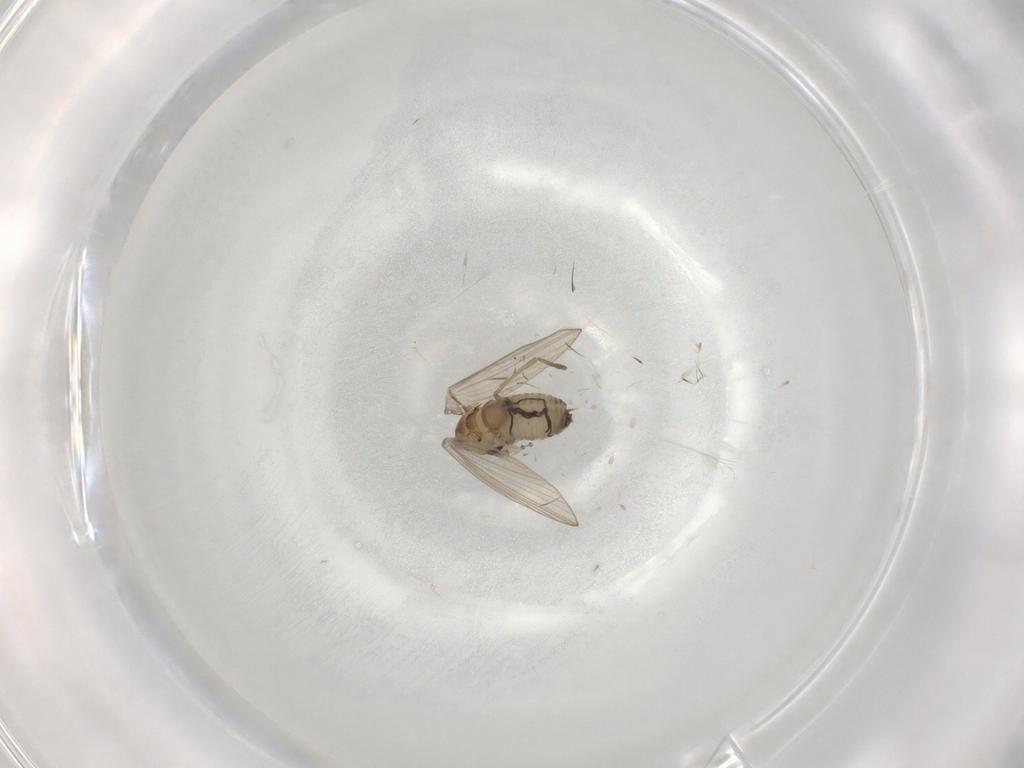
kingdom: Animalia
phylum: Arthropoda
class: Insecta
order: Diptera
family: Psychodidae
